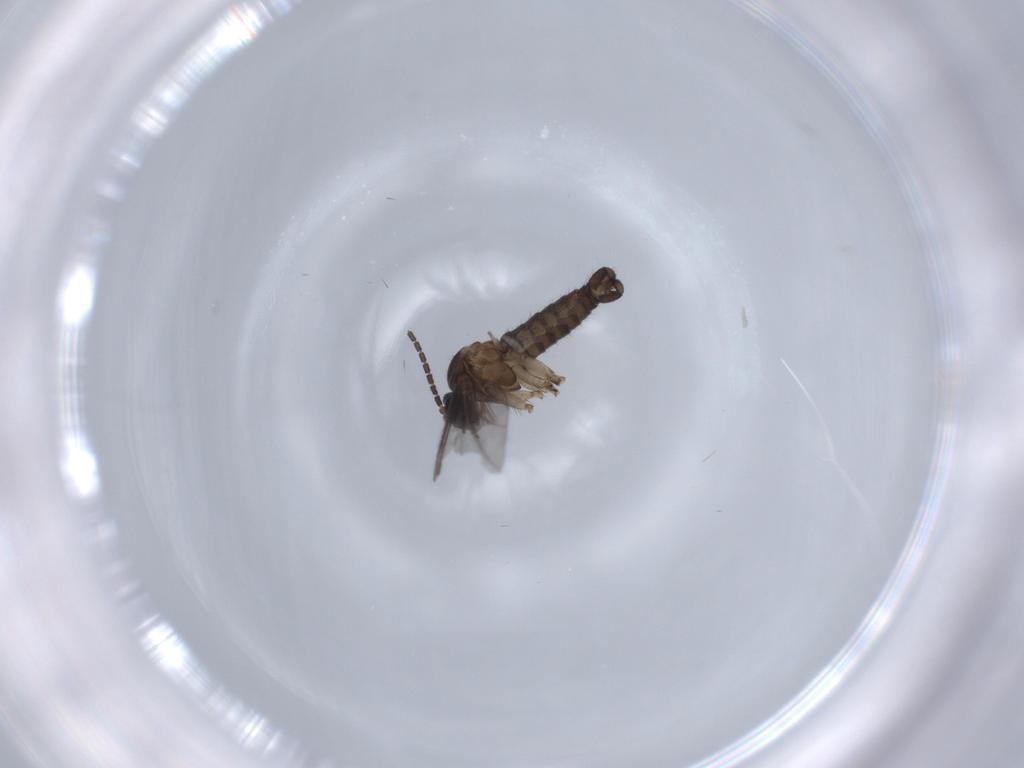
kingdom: Animalia
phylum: Arthropoda
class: Insecta
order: Diptera
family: Sciaridae
